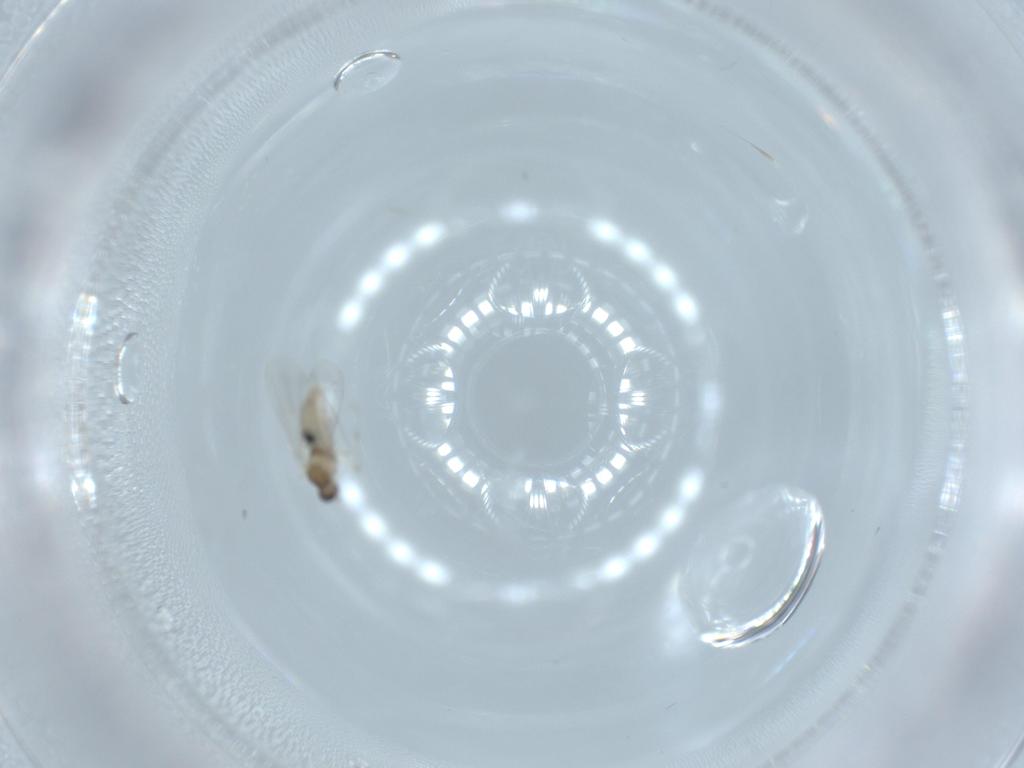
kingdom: Animalia
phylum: Arthropoda
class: Insecta
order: Diptera
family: Cecidomyiidae
